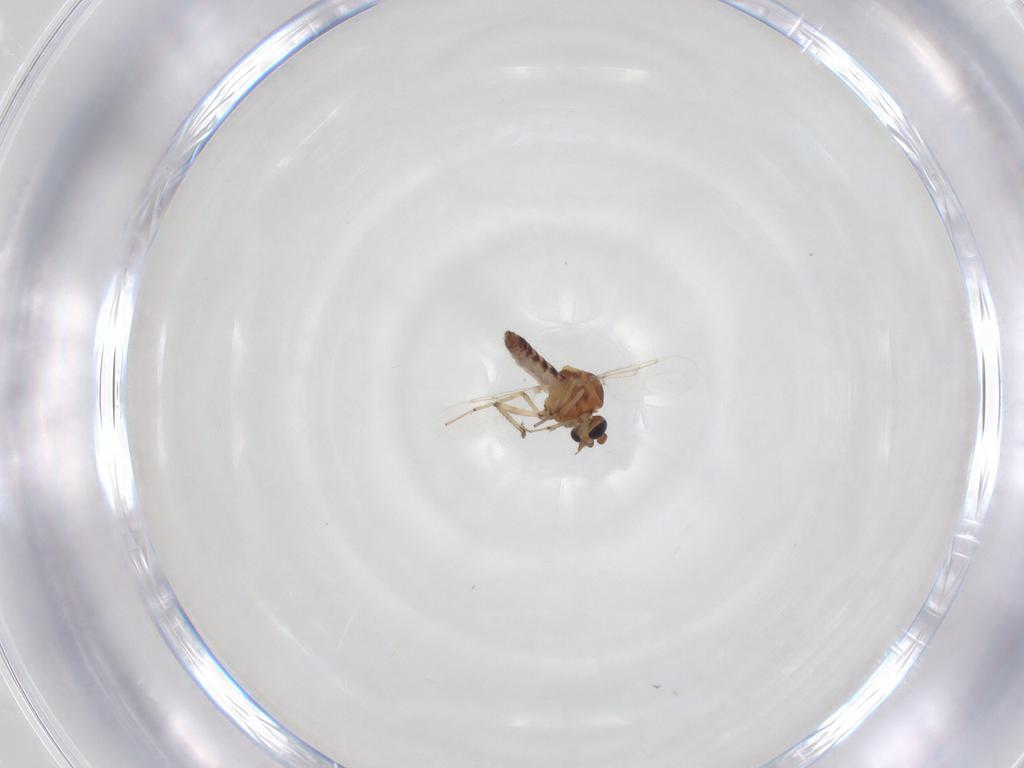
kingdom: Animalia
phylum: Arthropoda
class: Insecta
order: Diptera
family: Ceratopogonidae
